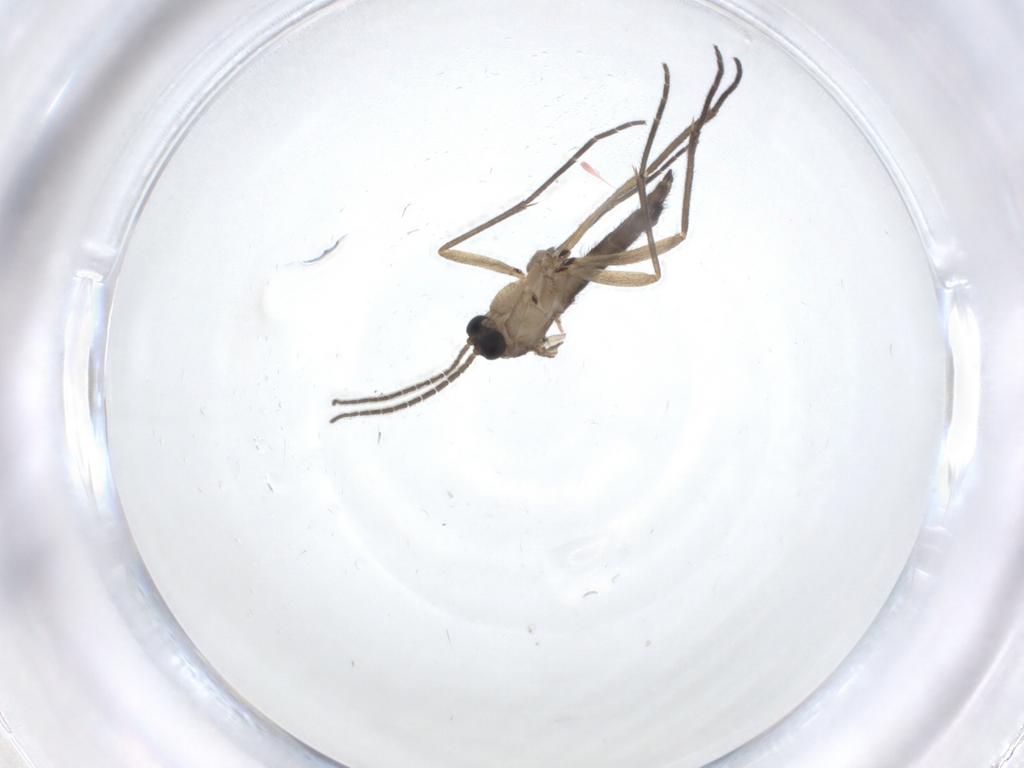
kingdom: Animalia
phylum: Arthropoda
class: Insecta
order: Diptera
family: Sciaridae
